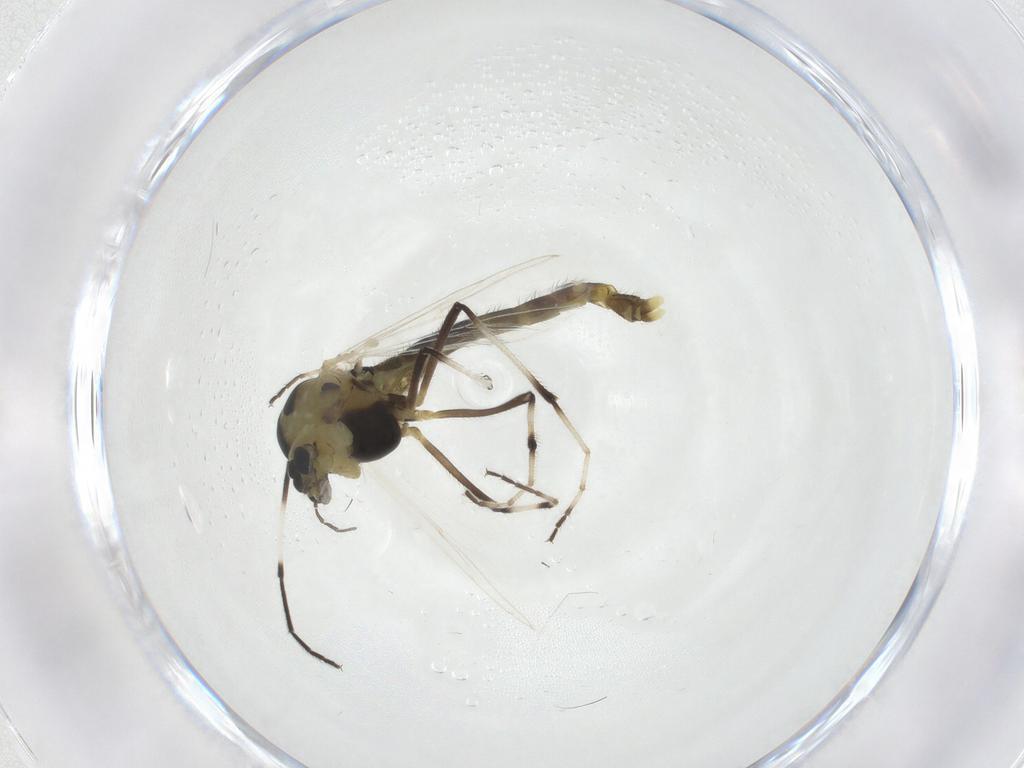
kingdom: Animalia
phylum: Arthropoda
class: Insecta
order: Diptera
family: Chironomidae
